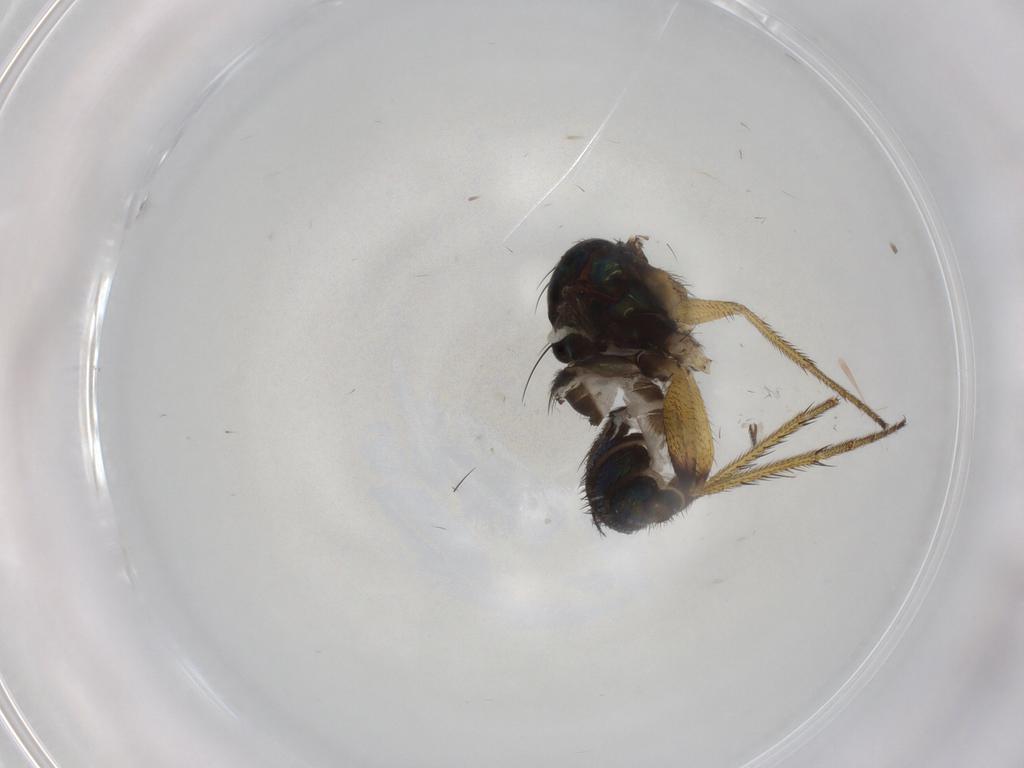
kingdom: Animalia
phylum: Arthropoda
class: Insecta
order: Diptera
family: Dolichopodidae
